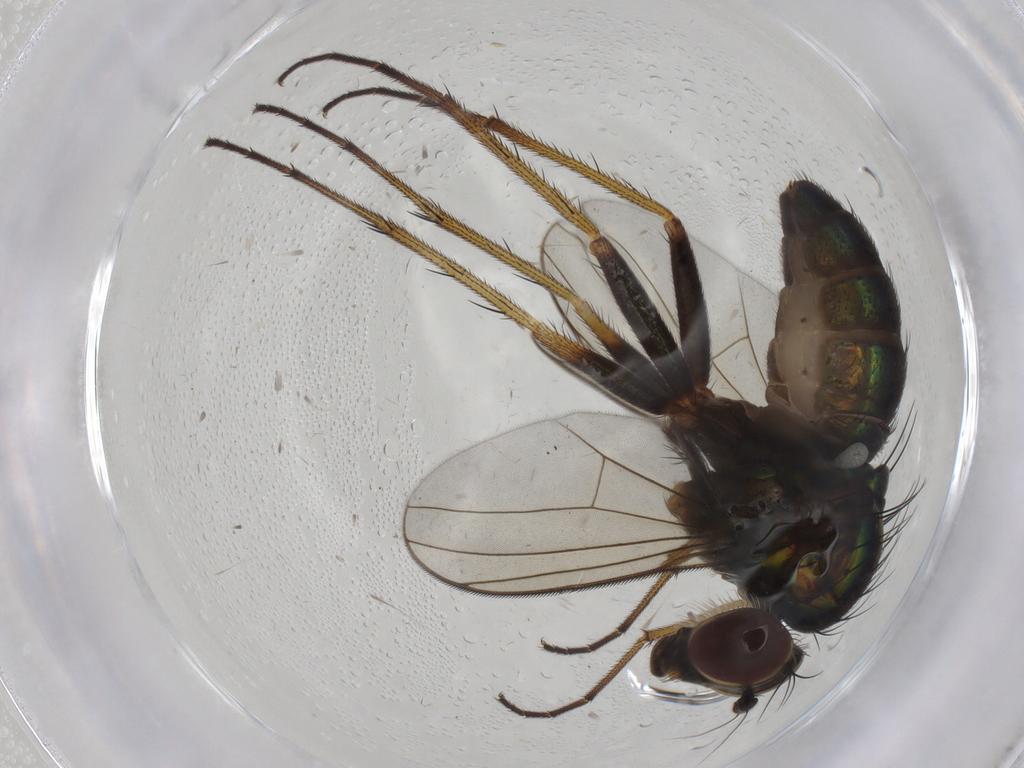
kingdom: Animalia
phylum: Arthropoda
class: Insecta
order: Diptera
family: Dolichopodidae
